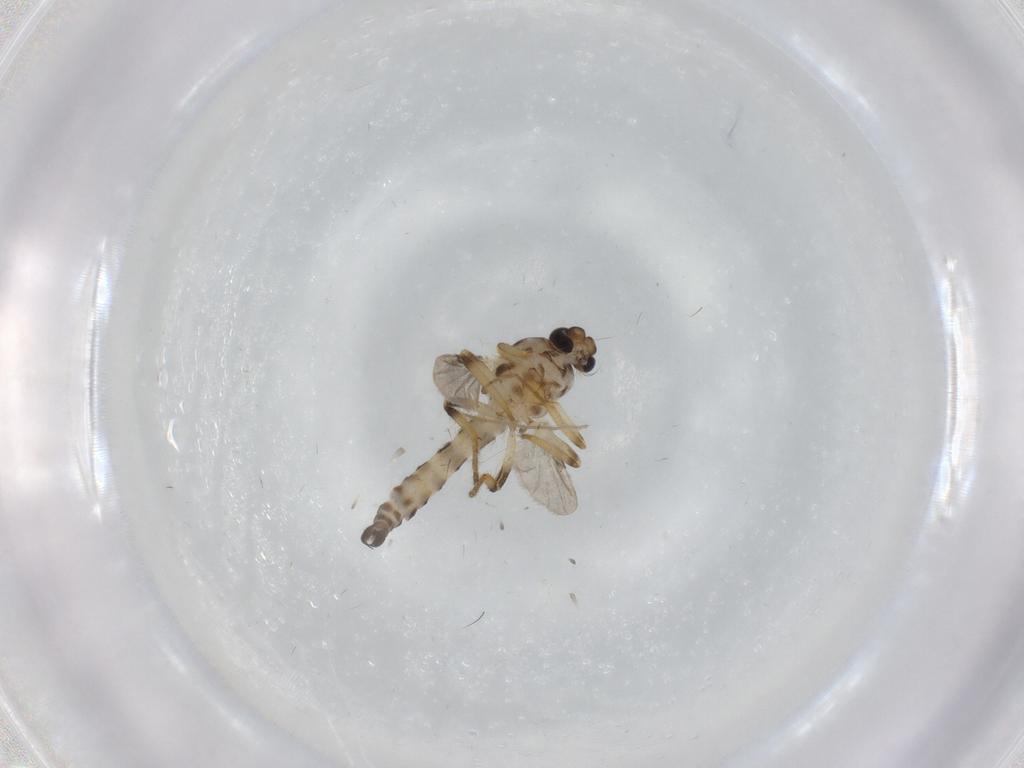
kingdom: Animalia
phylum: Arthropoda
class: Insecta
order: Diptera
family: Ceratopogonidae
